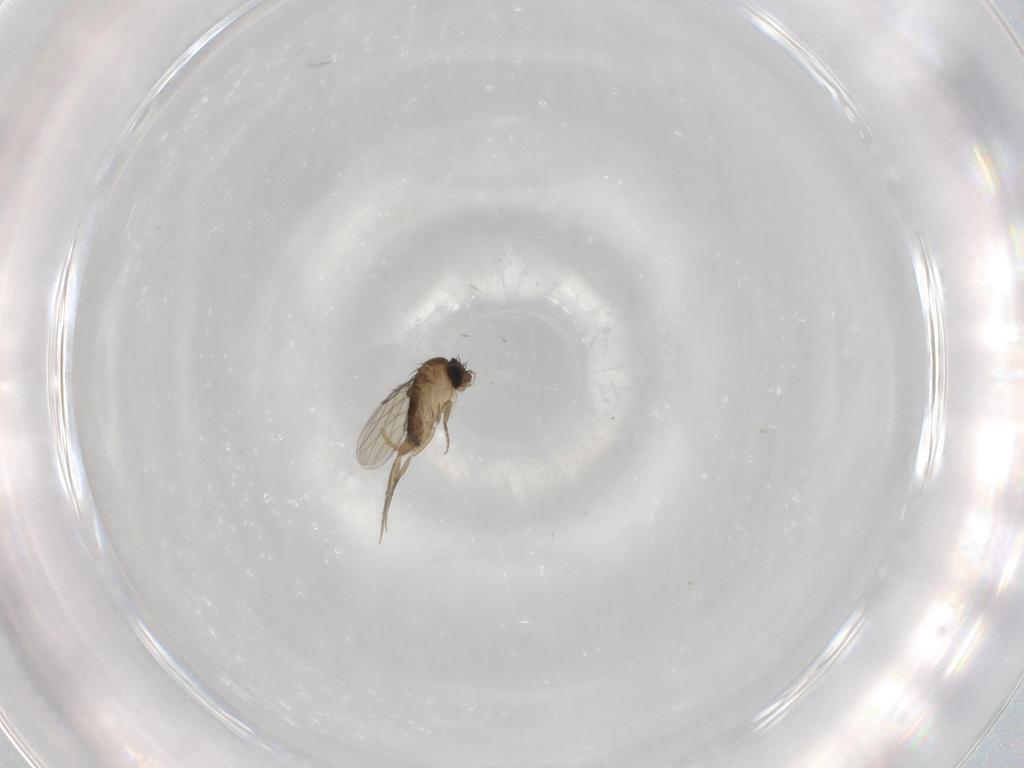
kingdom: Animalia
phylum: Arthropoda
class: Insecta
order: Diptera
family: Phoridae
